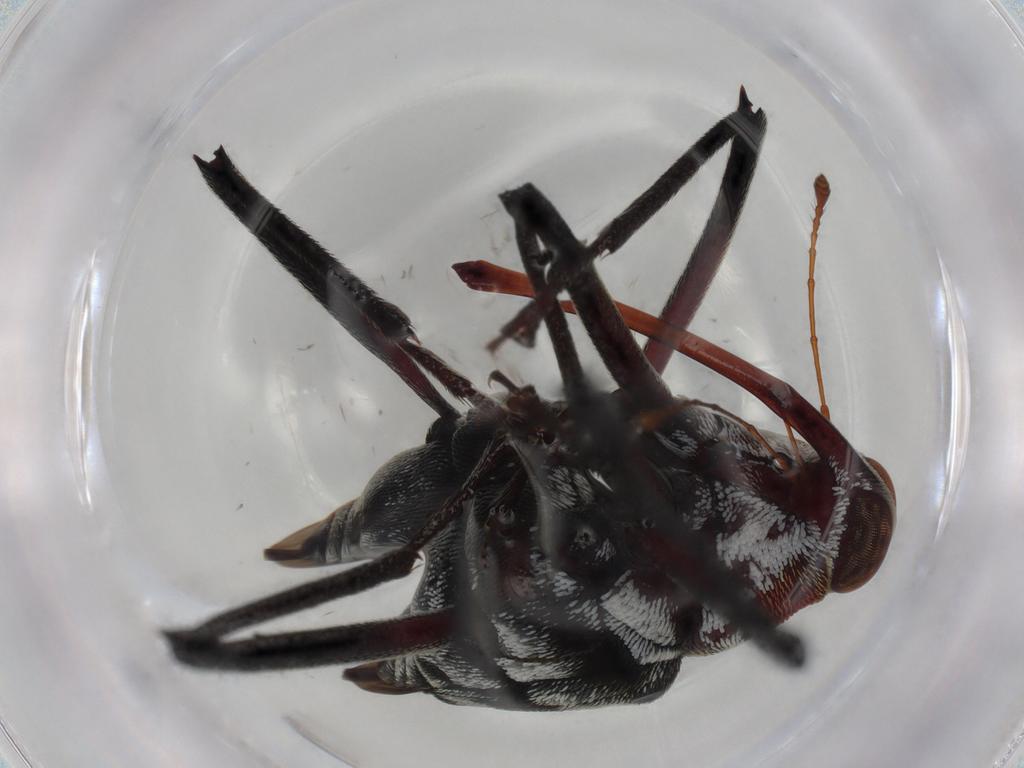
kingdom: Animalia
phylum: Arthropoda
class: Insecta
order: Coleoptera
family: Curculionidae
